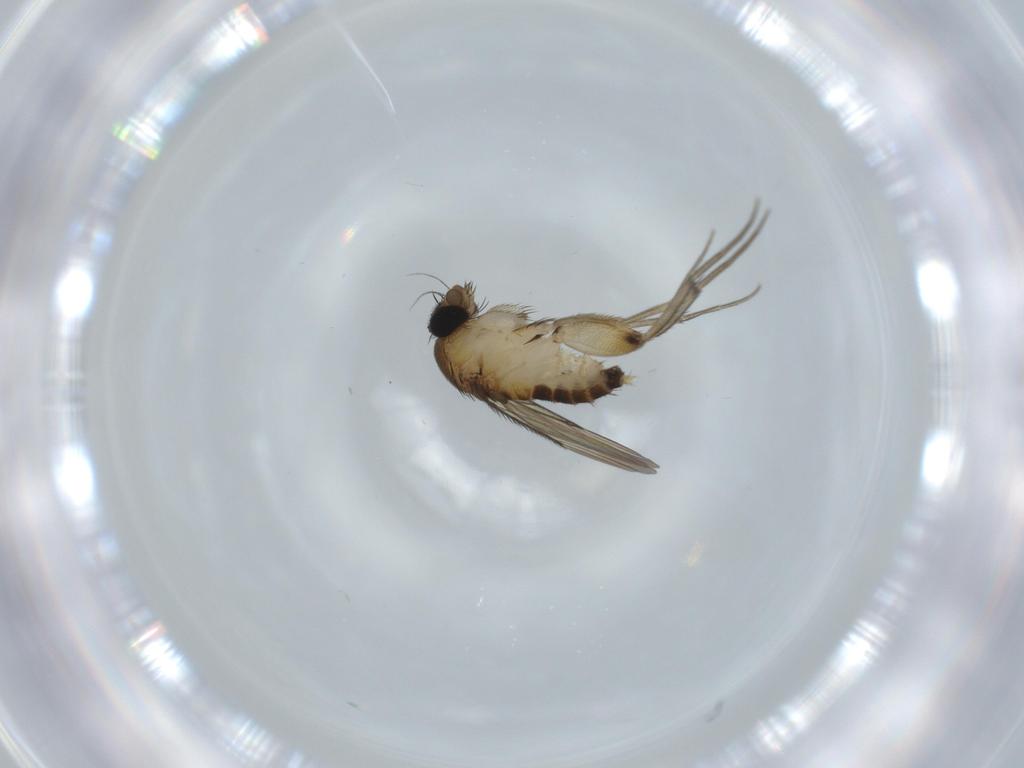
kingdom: Animalia
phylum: Arthropoda
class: Insecta
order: Diptera
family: Phoridae
